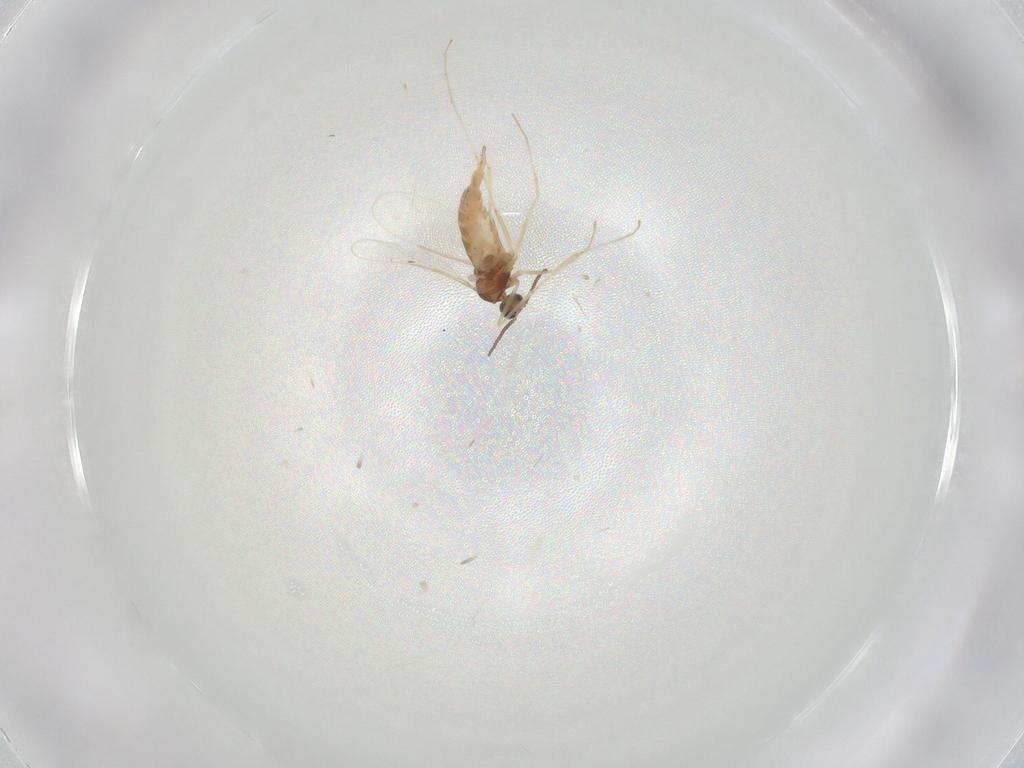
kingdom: Animalia
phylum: Arthropoda
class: Insecta
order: Diptera
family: Cecidomyiidae
